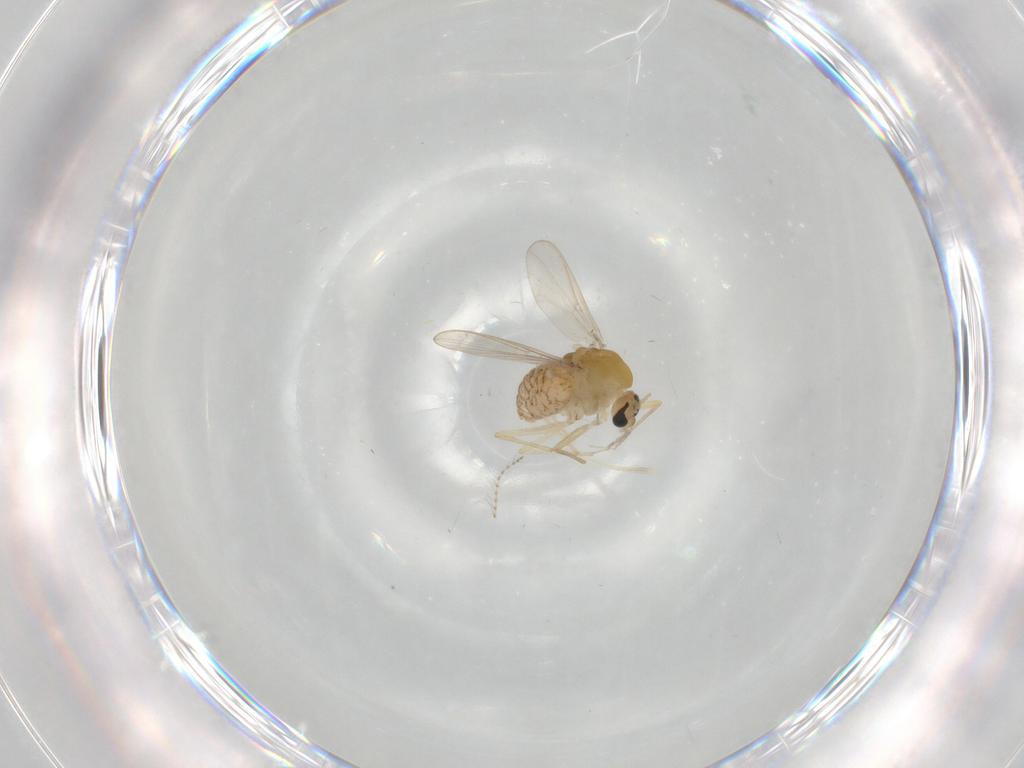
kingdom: Animalia
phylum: Arthropoda
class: Insecta
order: Diptera
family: Chironomidae
